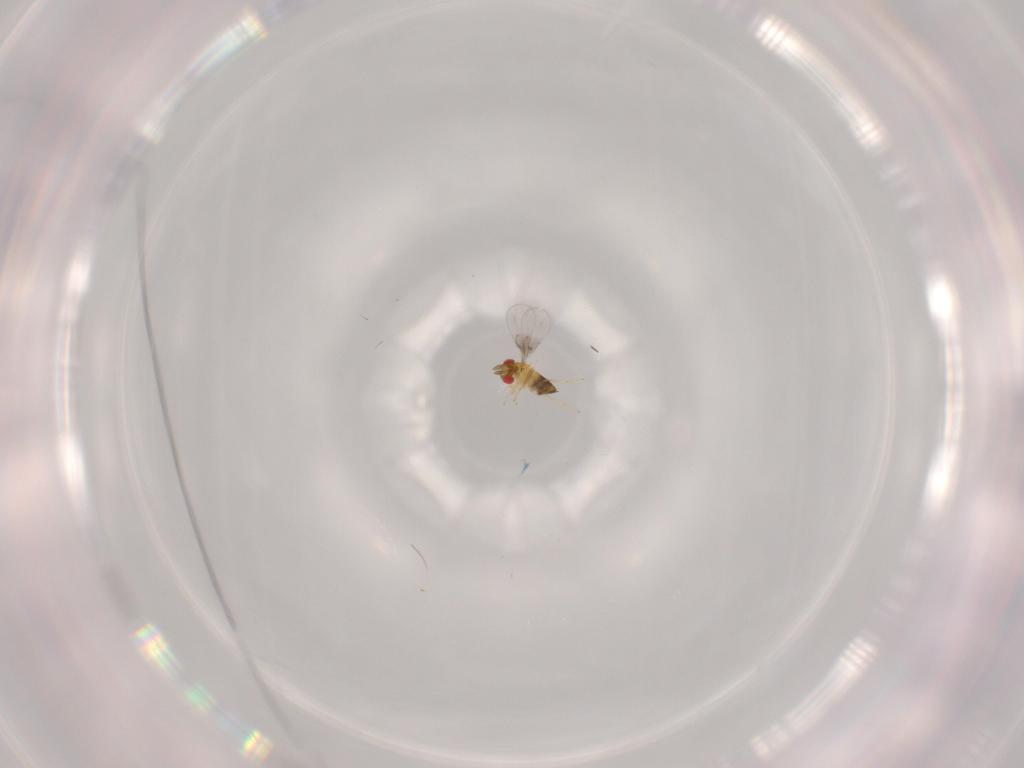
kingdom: Animalia
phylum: Arthropoda
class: Insecta
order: Hymenoptera
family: Trichogrammatidae
